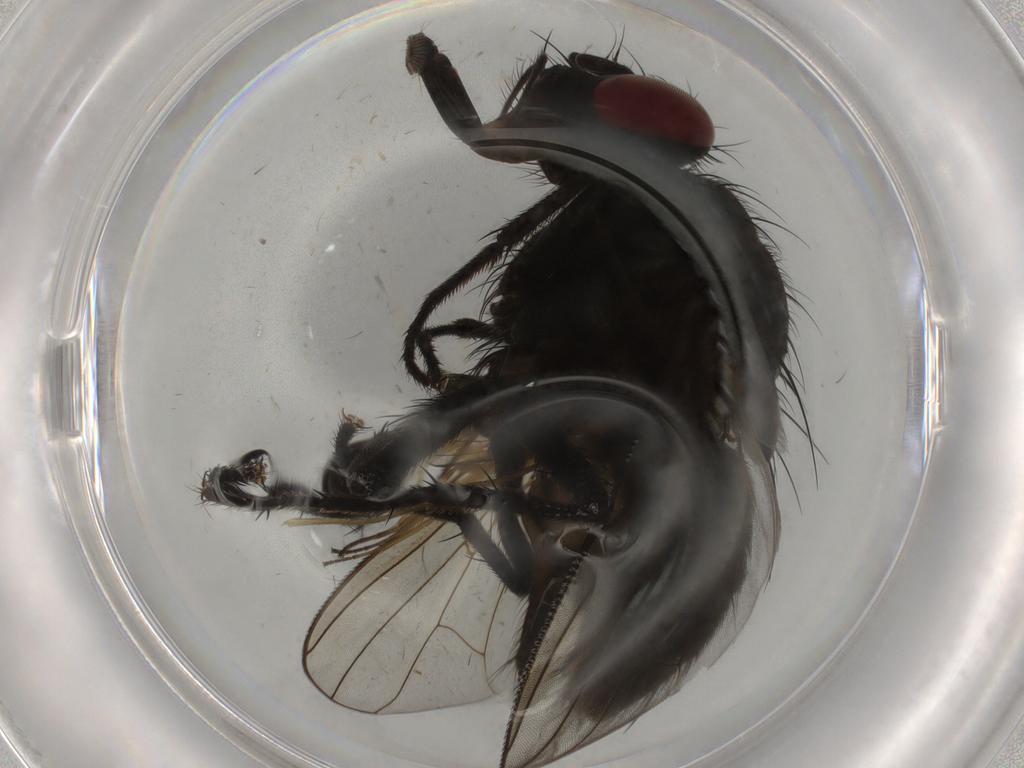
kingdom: Animalia
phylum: Arthropoda
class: Insecta
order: Diptera
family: Muscidae
